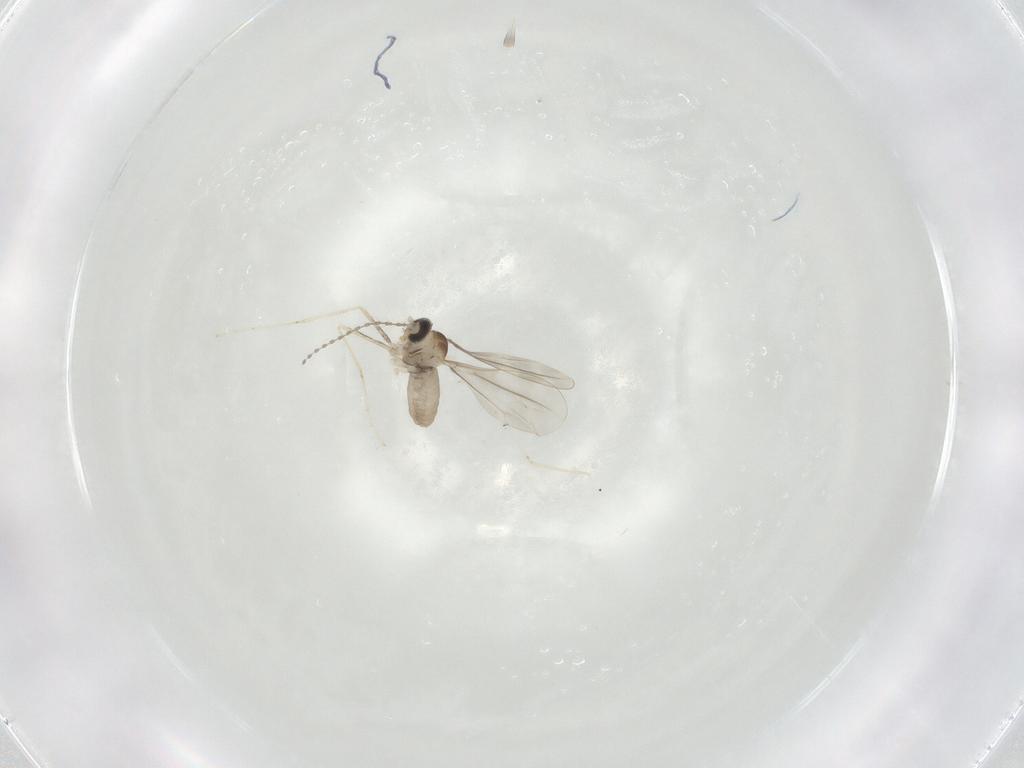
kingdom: Animalia
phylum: Arthropoda
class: Insecta
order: Diptera
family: Cecidomyiidae
